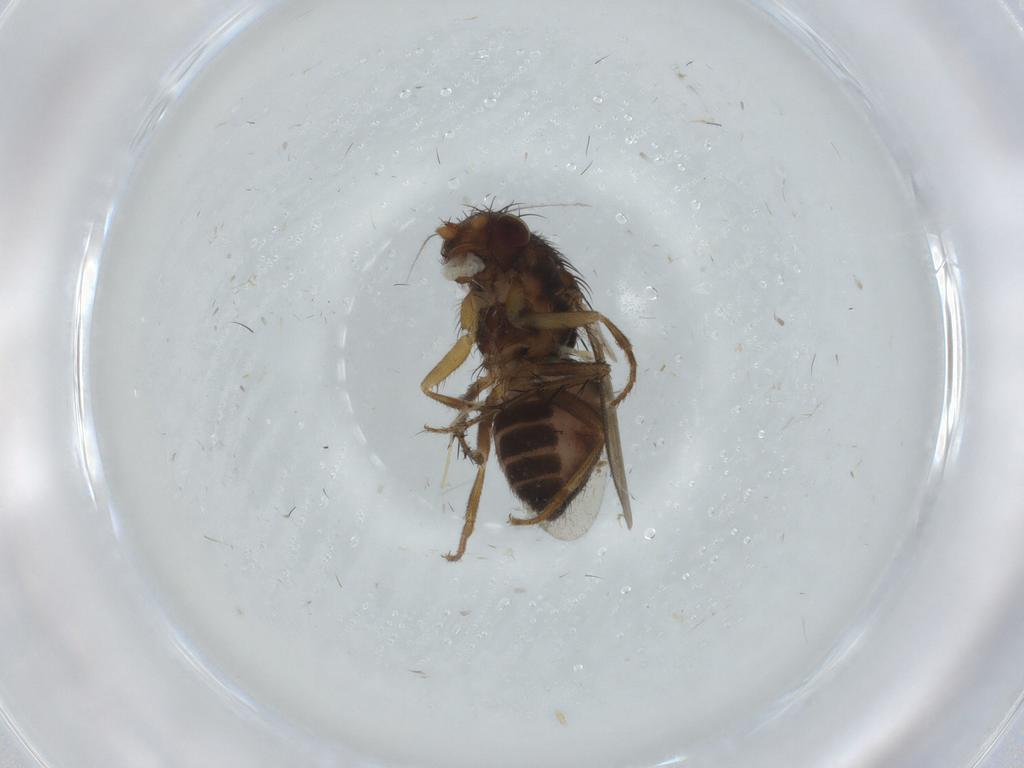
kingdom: Animalia
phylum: Arthropoda
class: Insecta
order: Diptera
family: Sphaeroceridae
